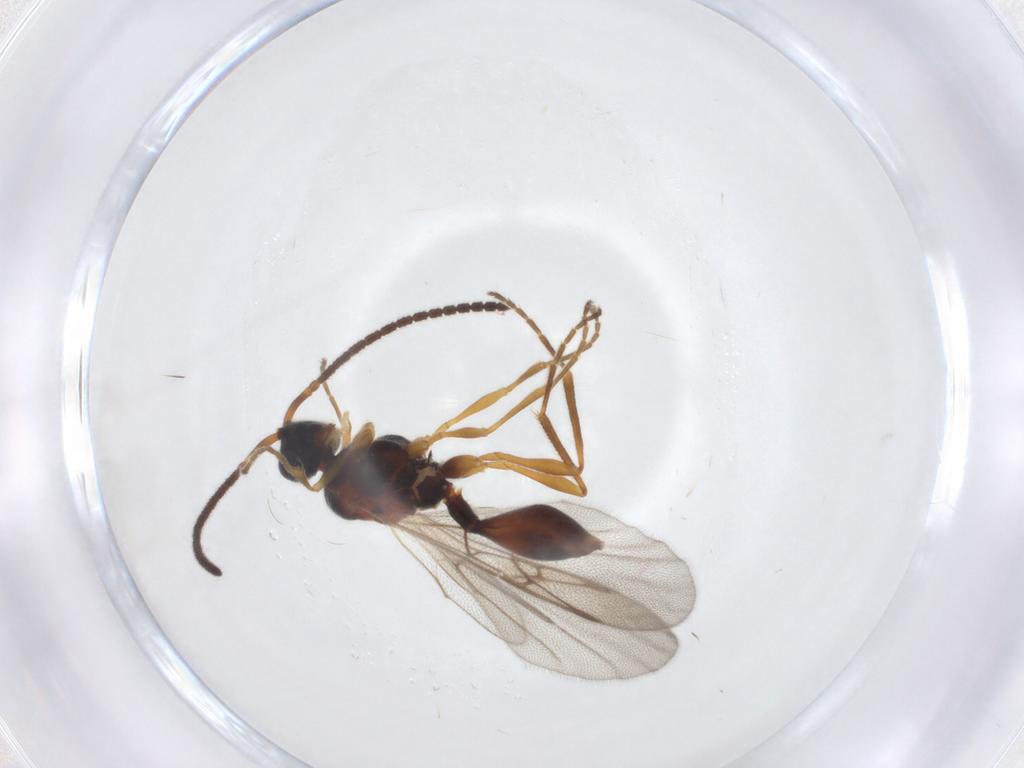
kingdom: Animalia
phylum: Arthropoda
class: Insecta
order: Hymenoptera
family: Diapriidae
